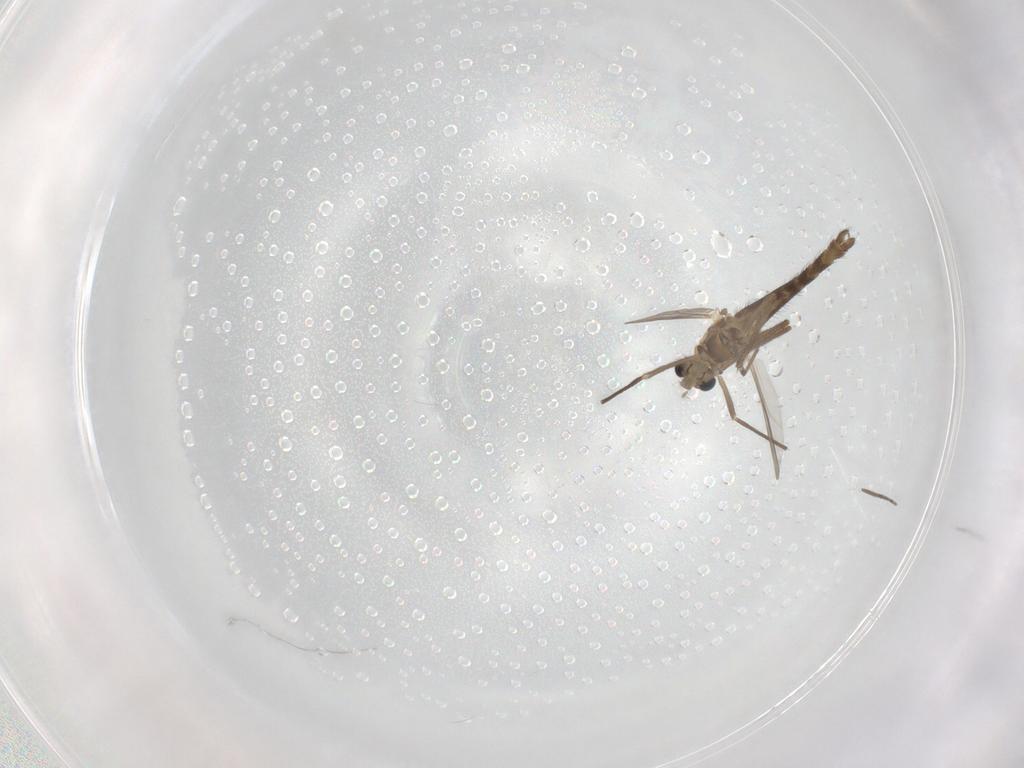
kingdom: Animalia
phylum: Arthropoda
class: Insecta
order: Diptera
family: Chironomidae
